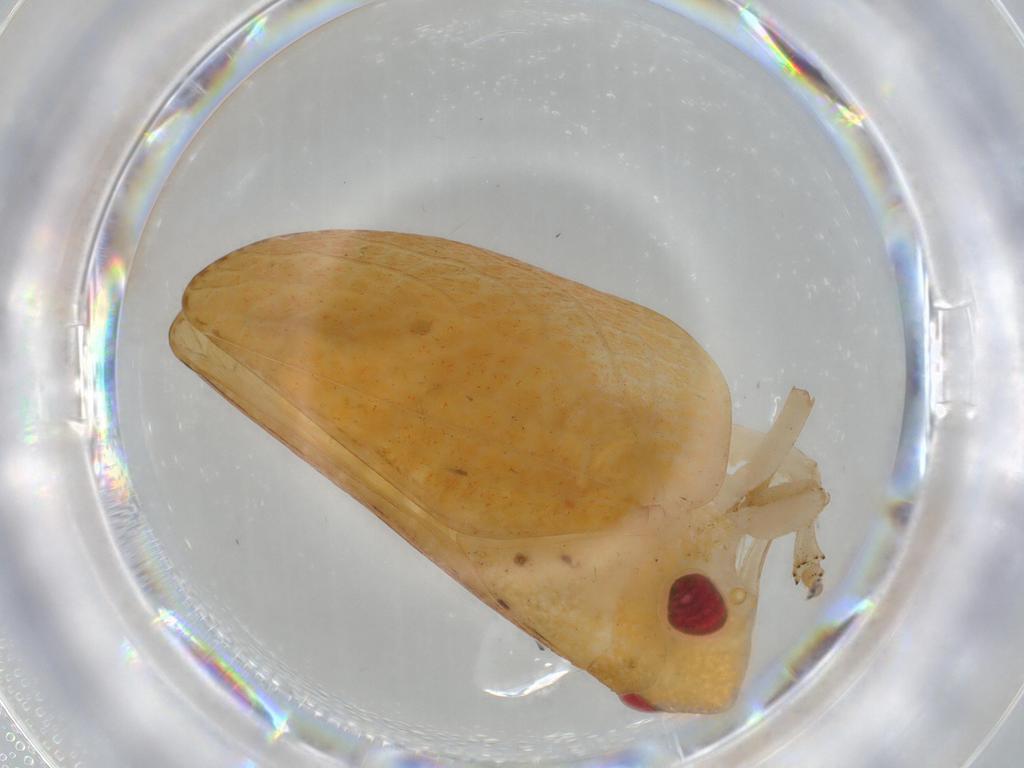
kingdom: Animalia
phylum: Arthropoda
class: Insecta
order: Hemiptera
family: Acanaloniidae
